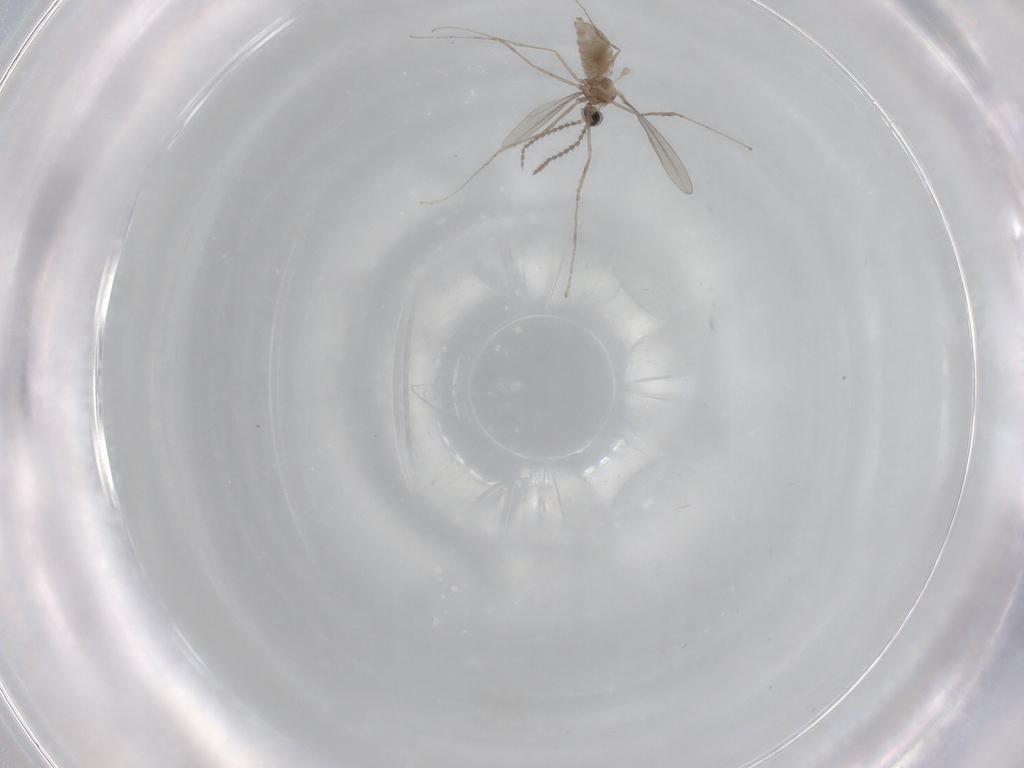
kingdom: Animalia
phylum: Arthropoda
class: Insecta
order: Diptera
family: Cecidomyiidae
